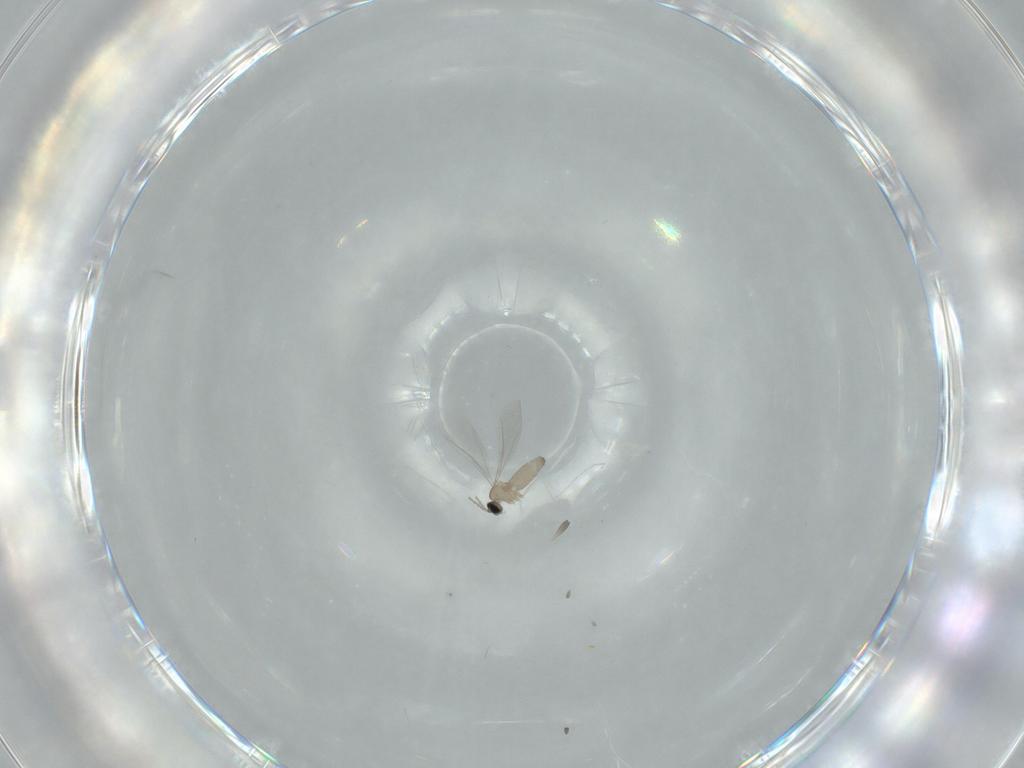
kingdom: Animalia
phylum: Arthropoda
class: Insecta
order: Diptera
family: Cecidomyiidae
